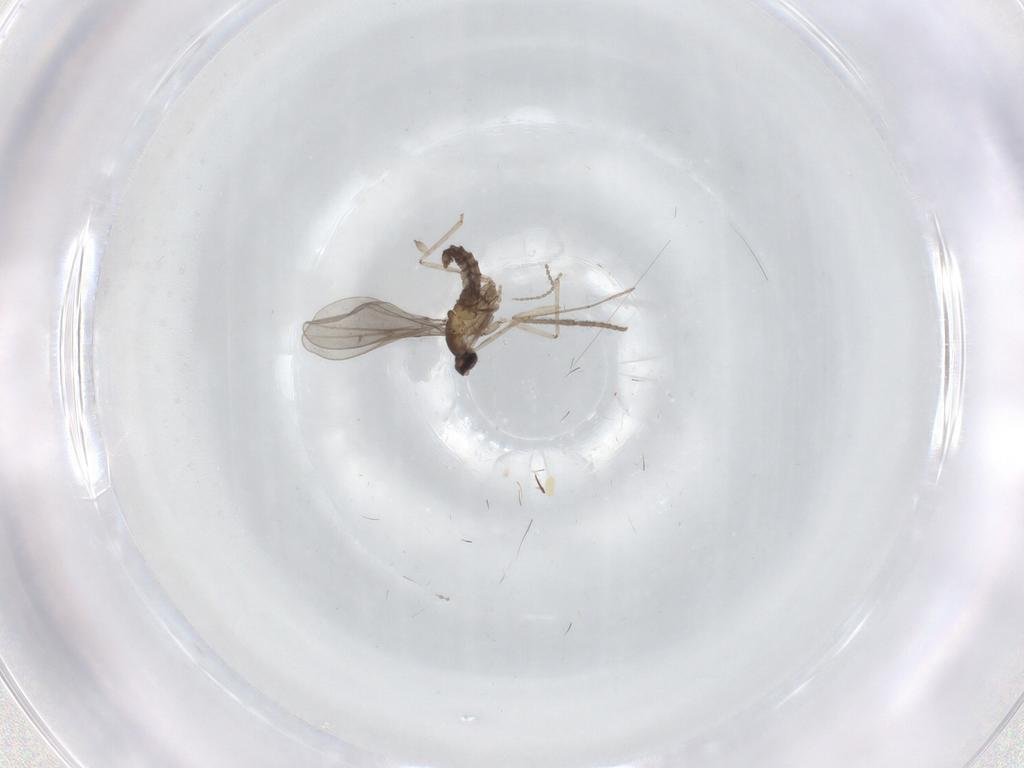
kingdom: Animalia
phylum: Arthropoda
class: Insecta
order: Diptera
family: Cecidomyiidae
